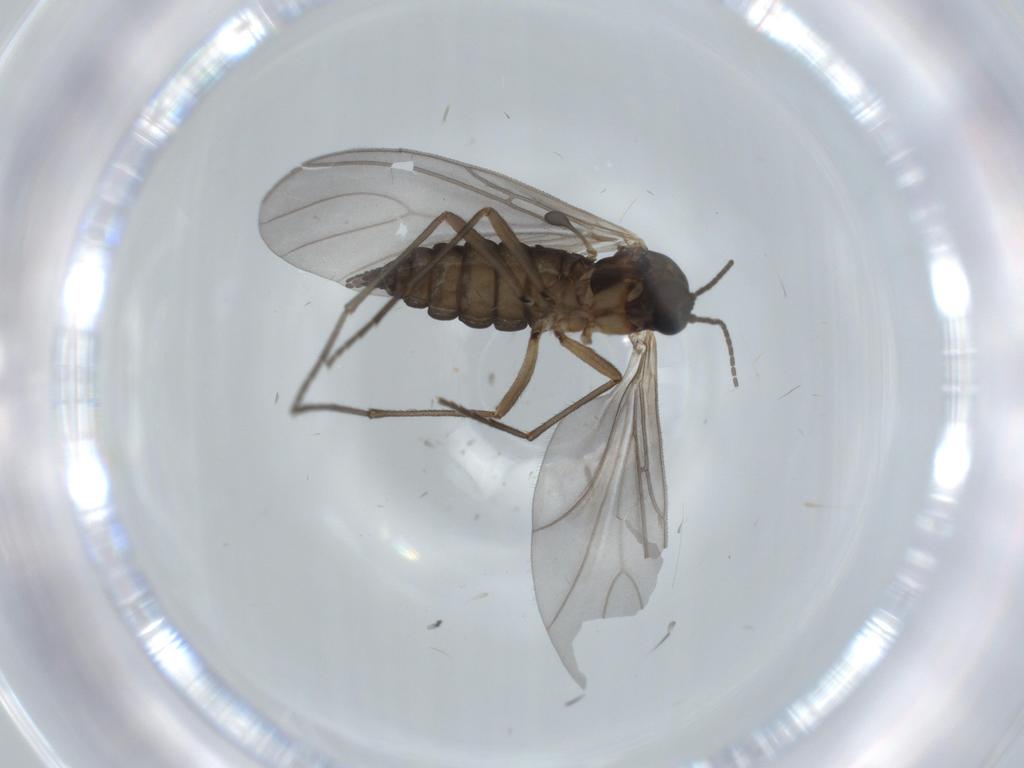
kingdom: Animalia
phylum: Arthropoda
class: Insecta
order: Diptera
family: Sciaridae
